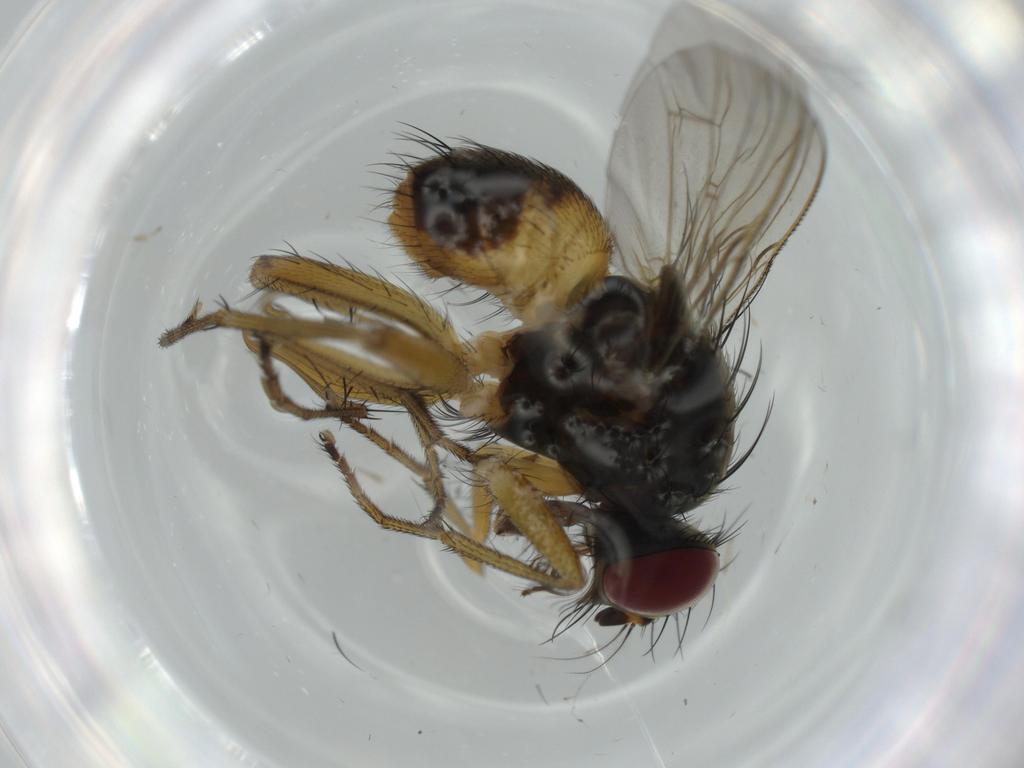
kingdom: Animalia
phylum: Arthropoda
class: Insecta
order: Diptera
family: Muscidae
